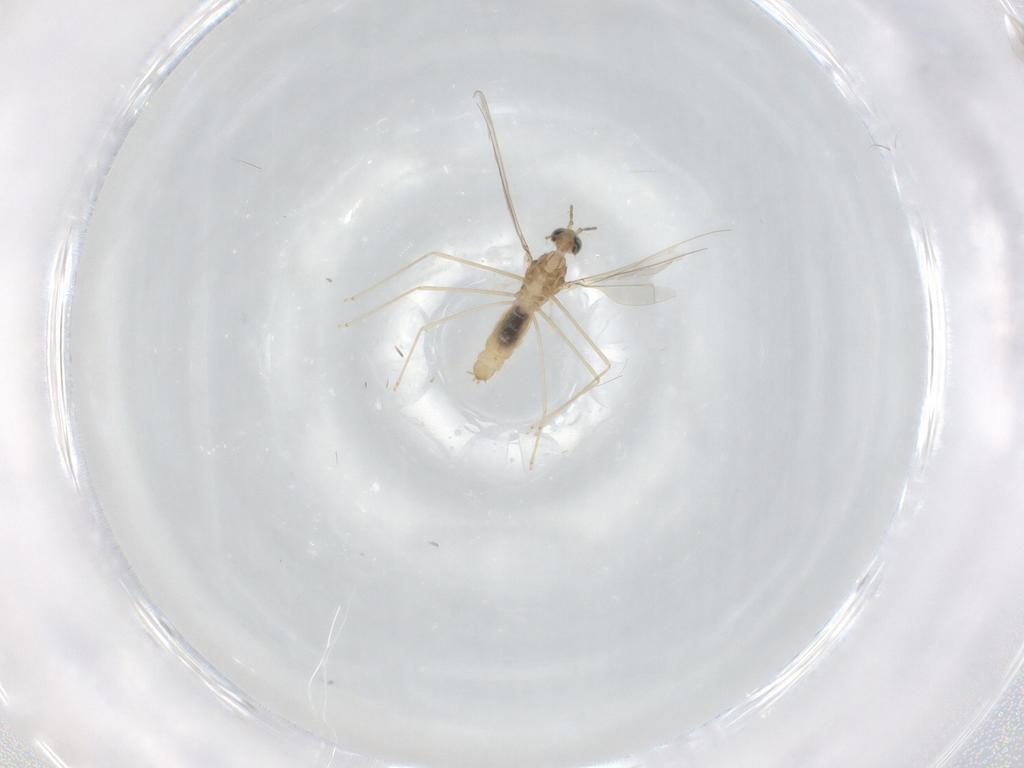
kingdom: Animalia
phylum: Arthropoda
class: Insecta
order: Diptera
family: Cecidomyiidae
